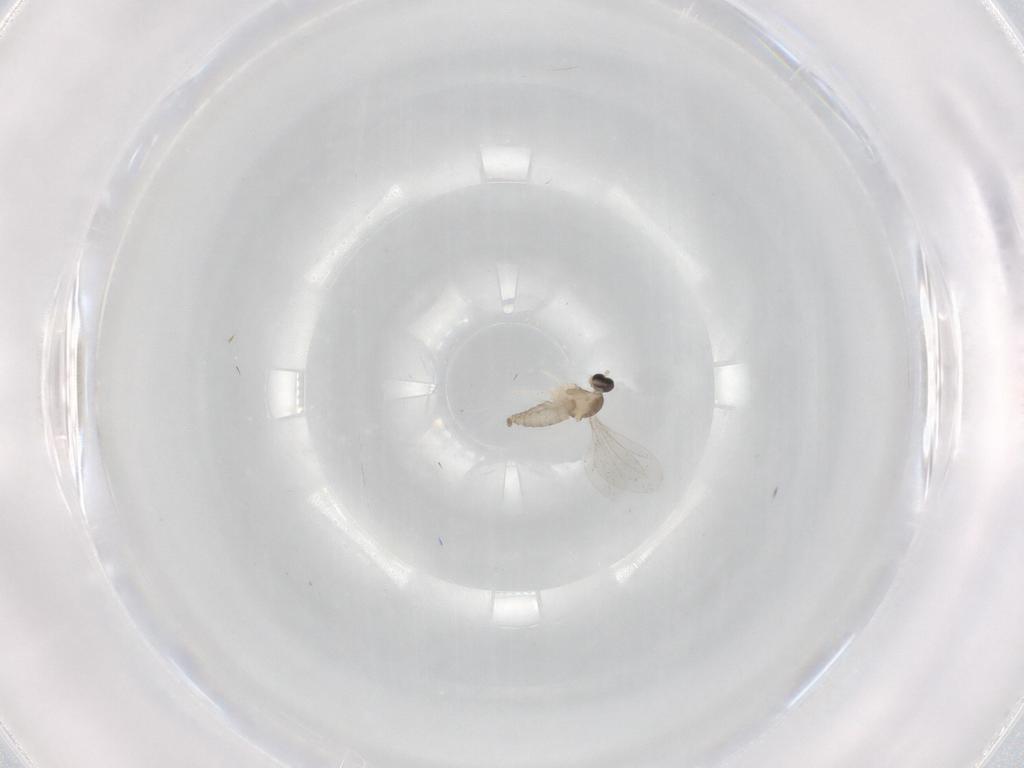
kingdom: Animalia
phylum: Arthropoda
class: Insecta
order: Diptera
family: Cecidomyiidae
